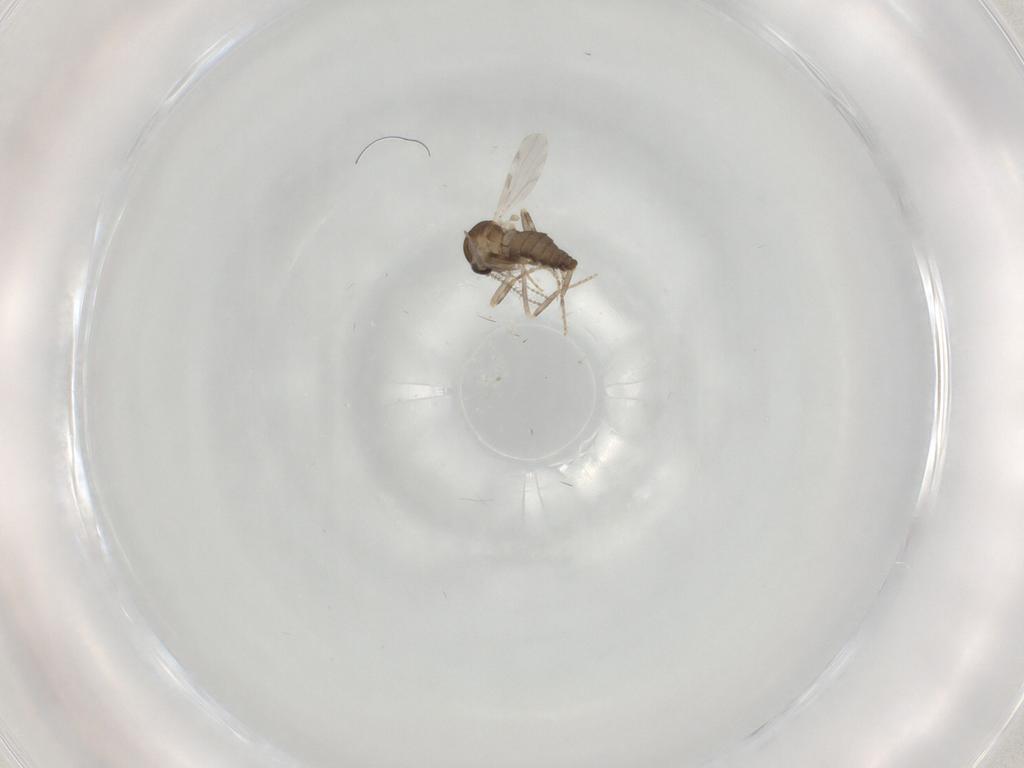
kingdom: Animalia
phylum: Arthropoda
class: Insecta
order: Diptera
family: Ceratopogonidae
